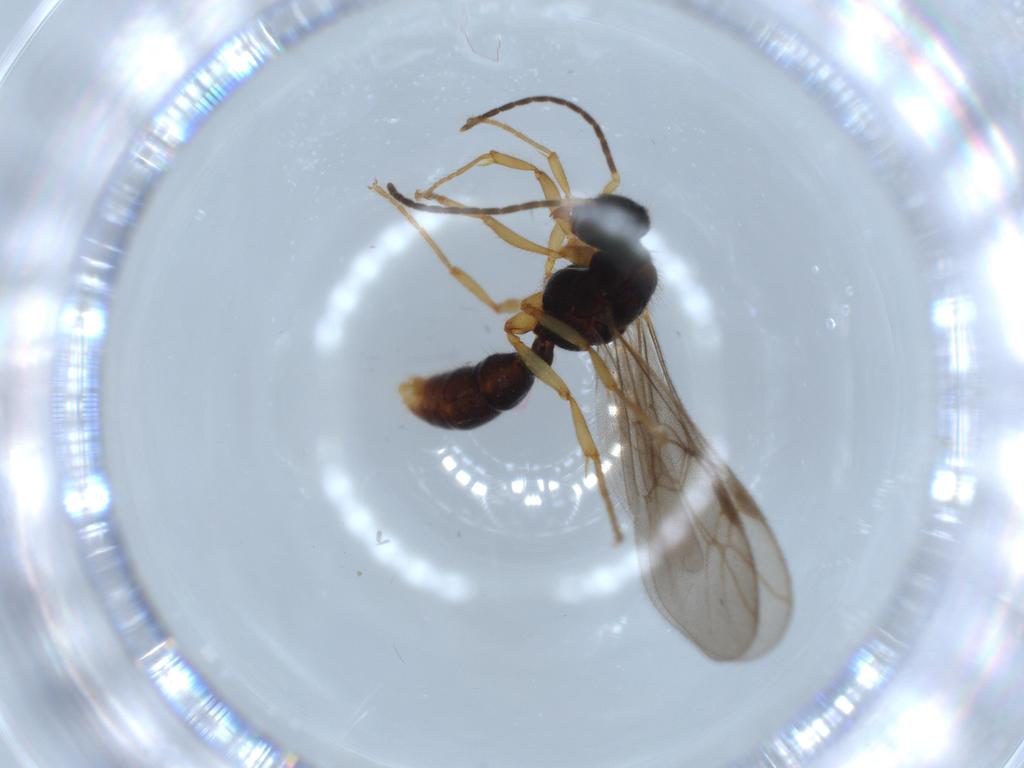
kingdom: Animalia
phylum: Arthropoda
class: Insecta
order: Hymenoptera
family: Formicidae
